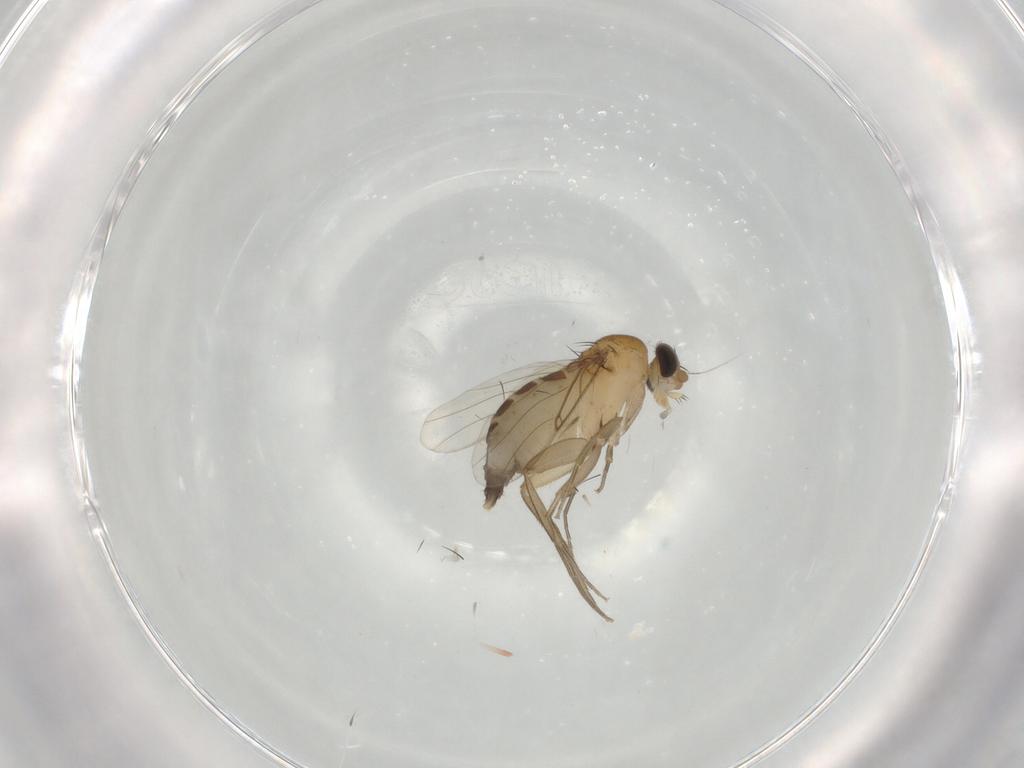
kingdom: Animalia
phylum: Arthropoda
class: Insecta
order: Diptera
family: Phoridae
